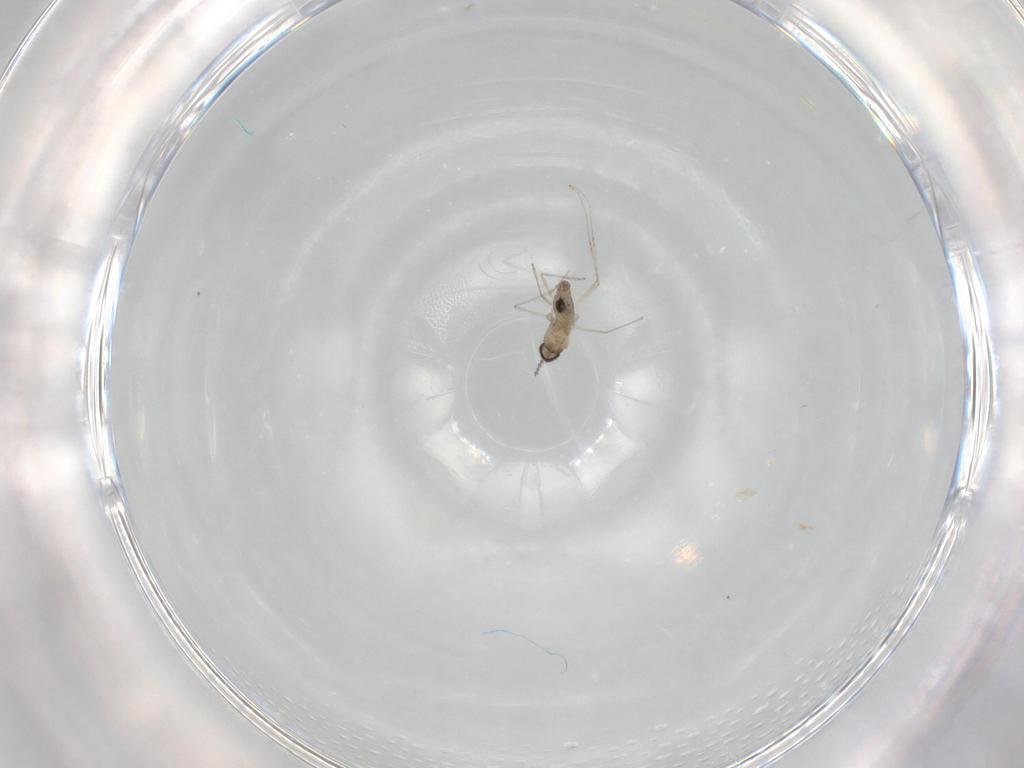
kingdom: Animalia
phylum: Arthropoda
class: Insecta
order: Diptera
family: Cecidomyiidae
